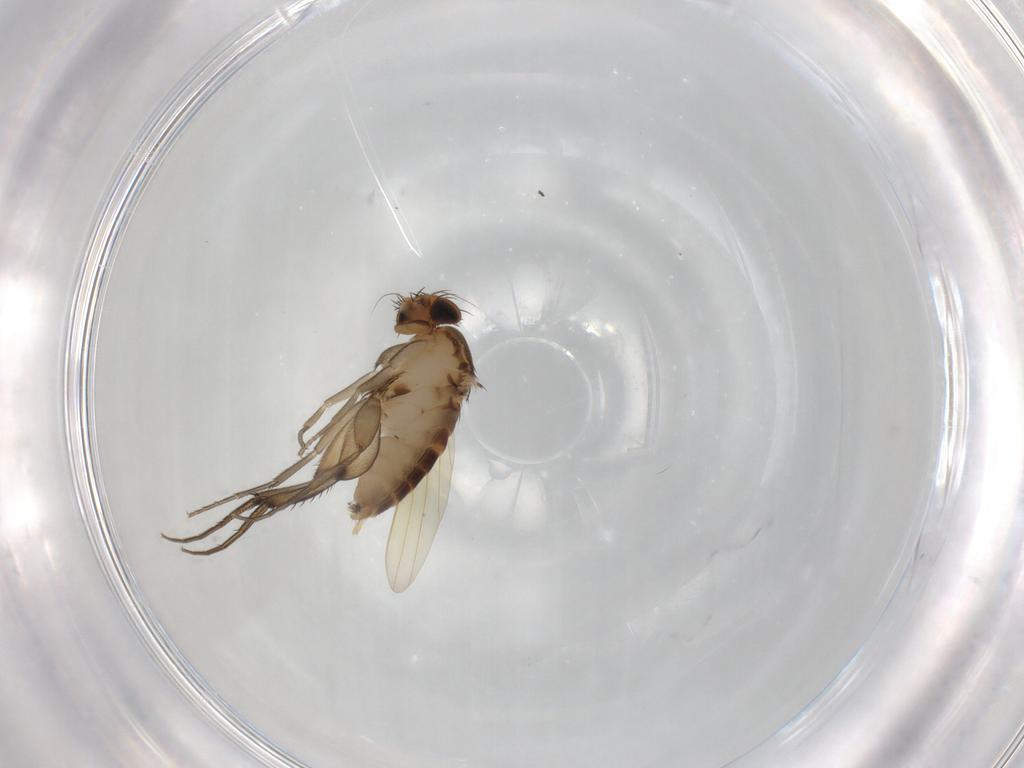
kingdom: Animalia
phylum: Arthropoda
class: Insecta
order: Diptera
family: Phoridae
